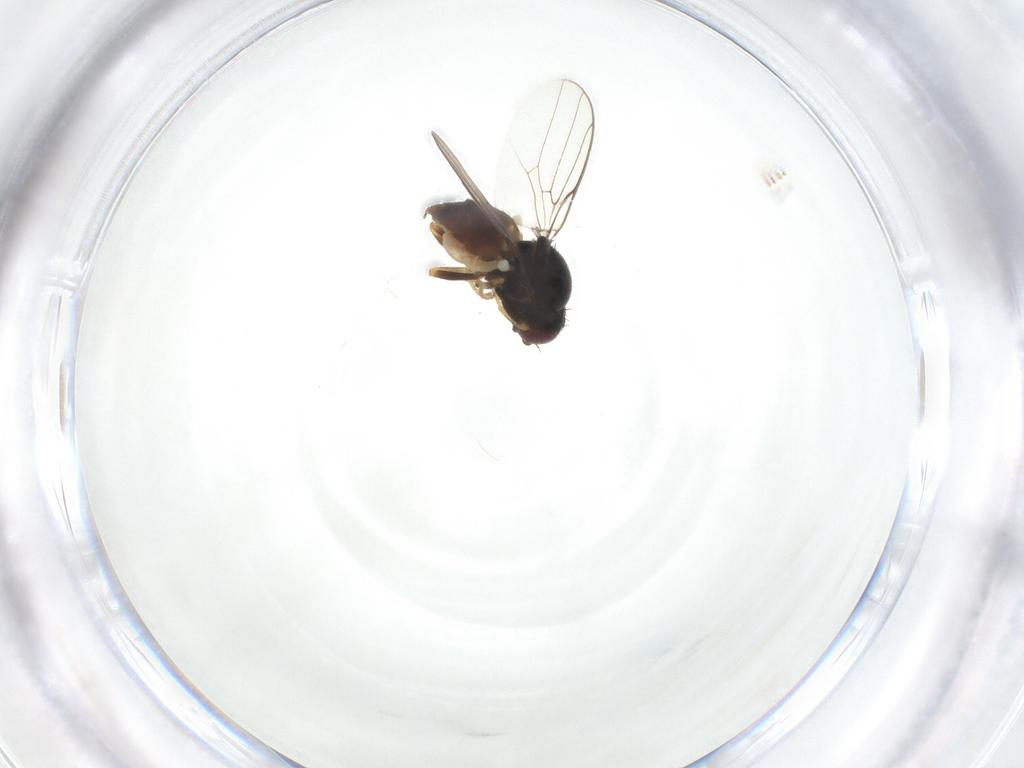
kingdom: Animalia
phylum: Arthropoda
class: Insecta
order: Diptera
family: Chloropidae
